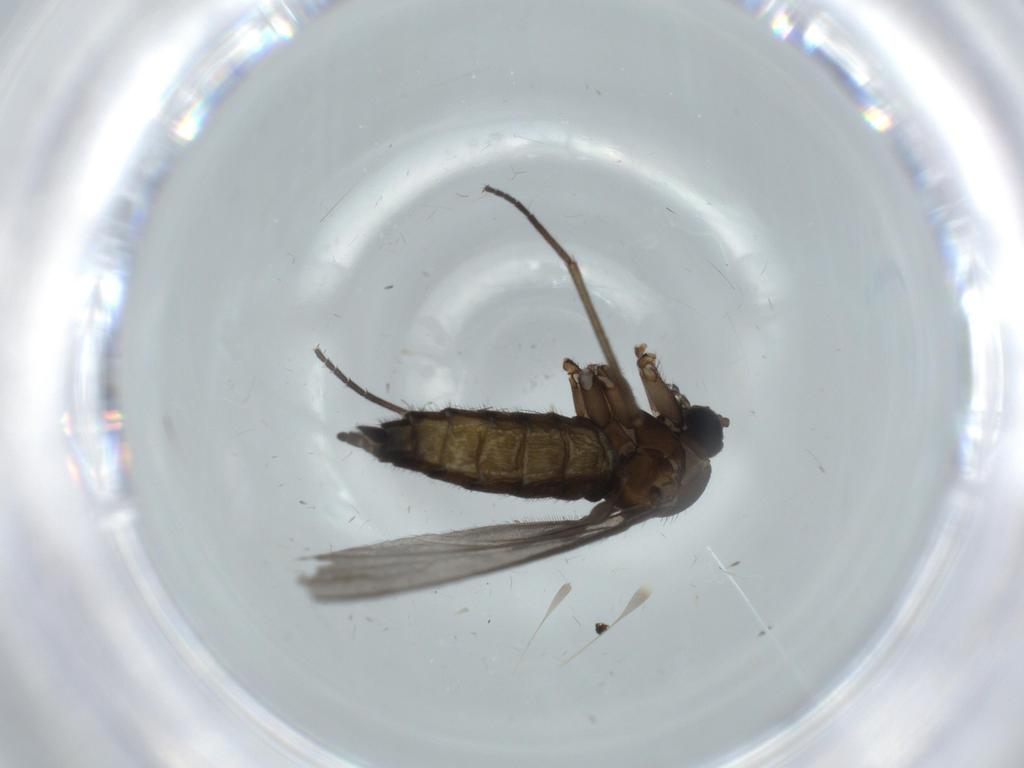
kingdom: Animalia
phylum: Arthropoda
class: Insecta
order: Diptera
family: Sciaridae
